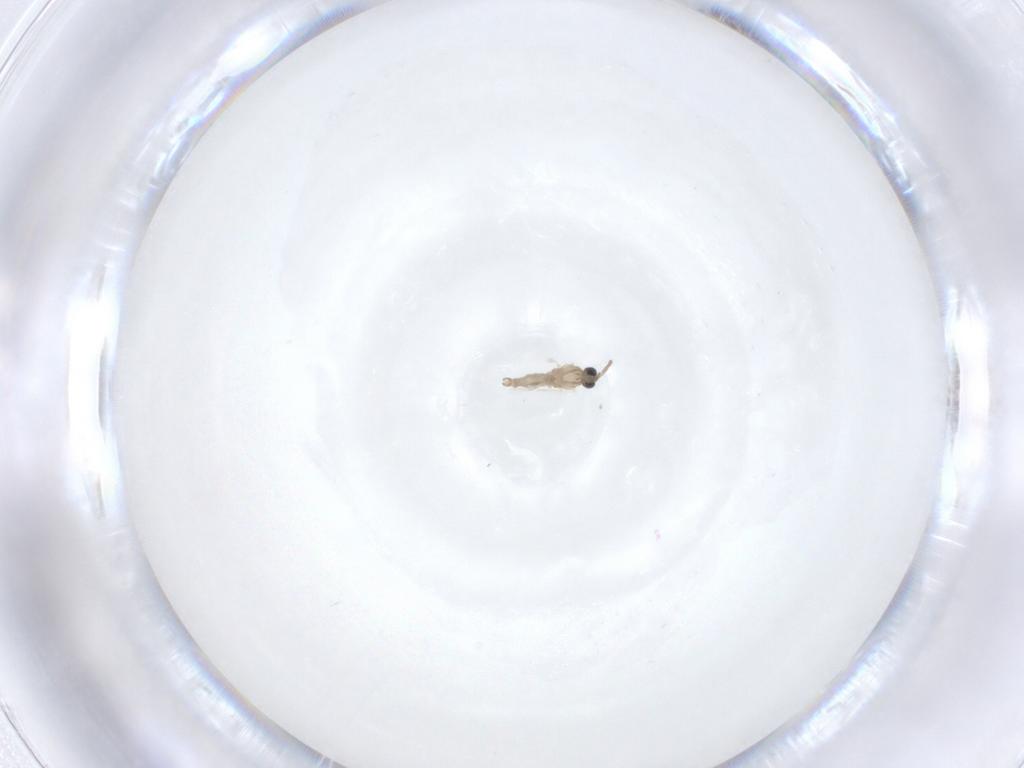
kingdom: Animalia
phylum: Arthropoda
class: Insecta
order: Diptera
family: Cecidomyiidae
